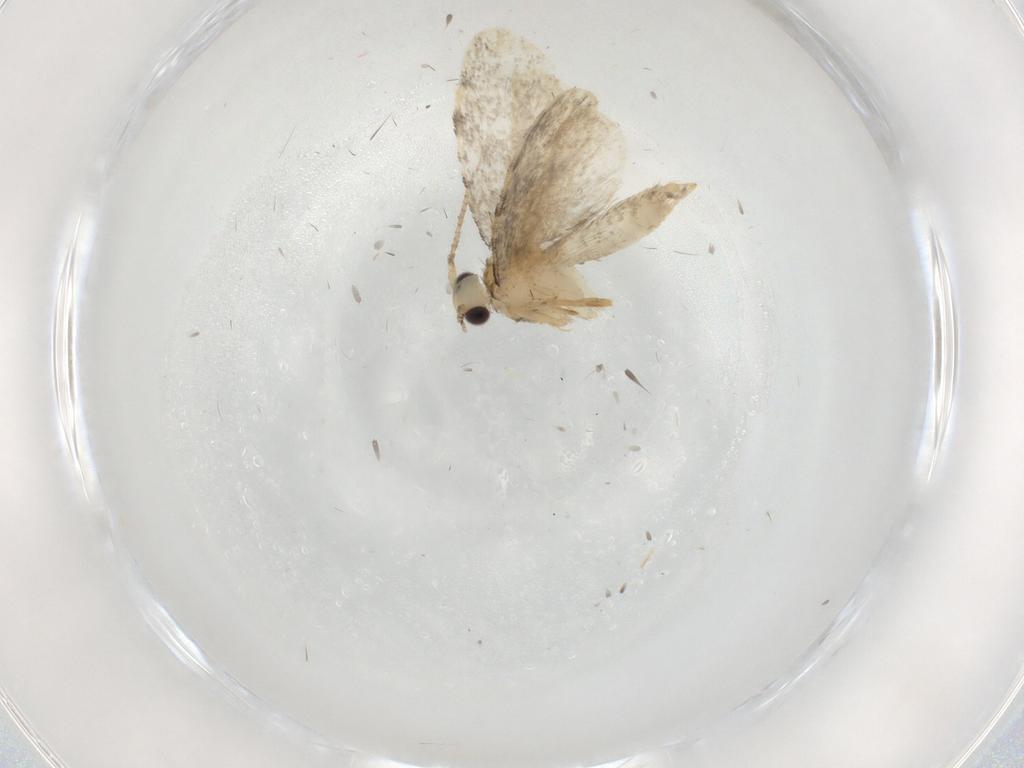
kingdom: Animalia
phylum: Arthropoda
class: Insecta
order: Lepidoptera
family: Psychidae
